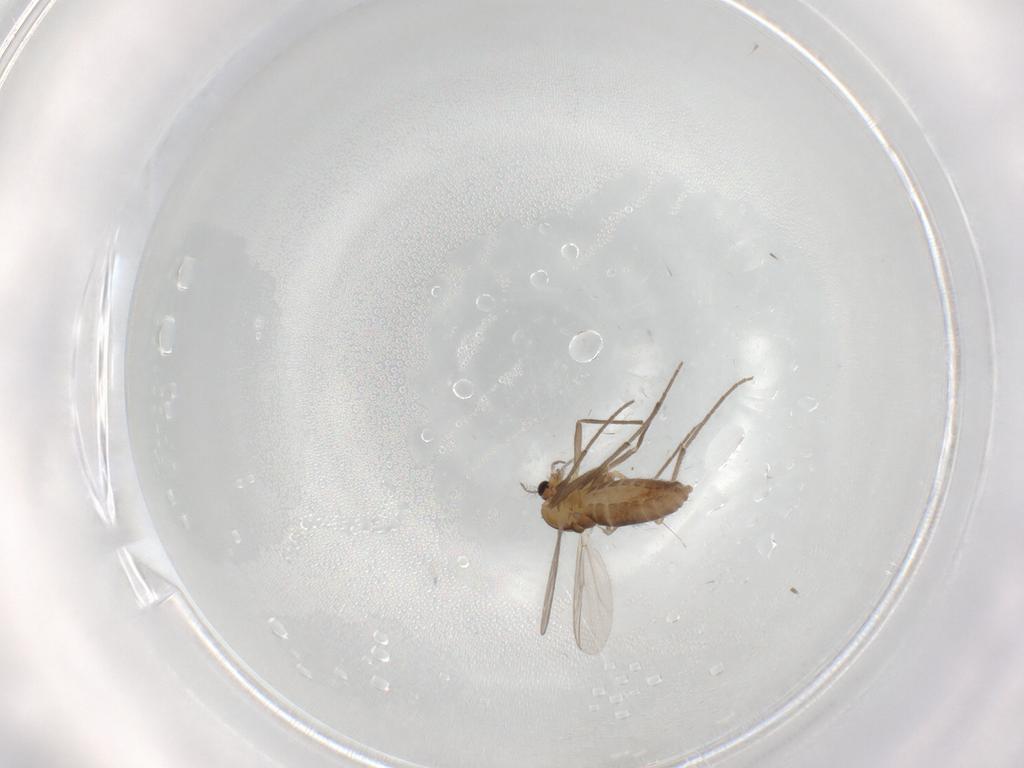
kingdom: Animalia
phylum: Arthropoda
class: Insecta
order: Diptera
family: Chironomidae
